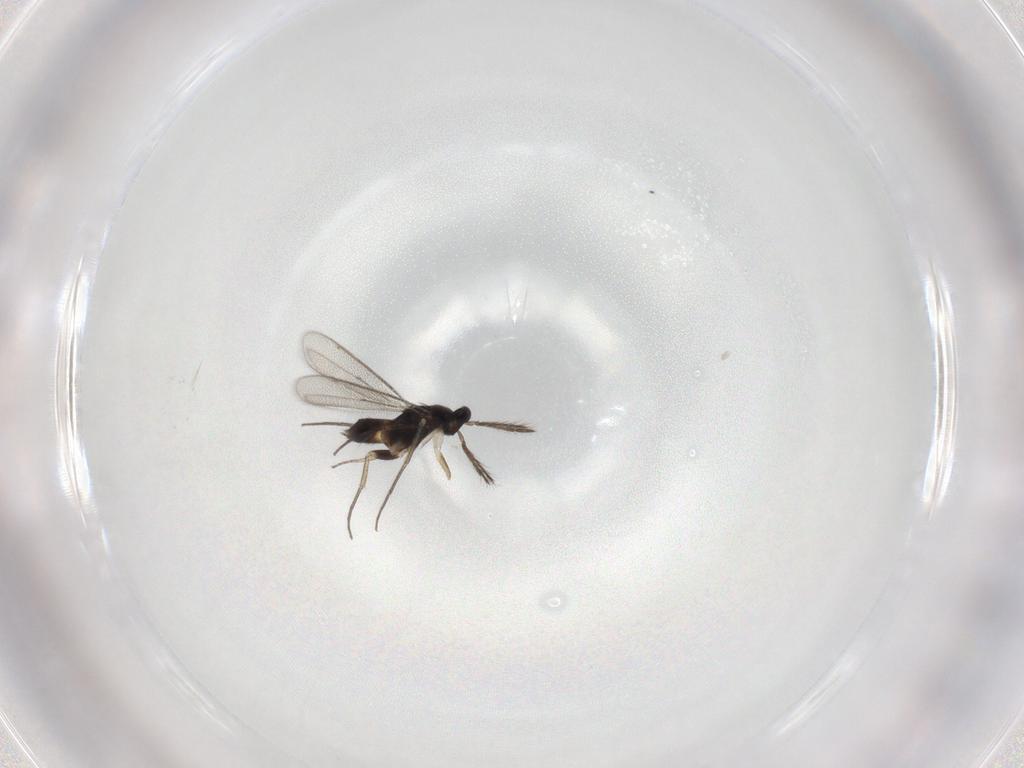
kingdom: Animalia
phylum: Arthropoda
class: Insecta
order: Hymenoptera
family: Eulophidae
